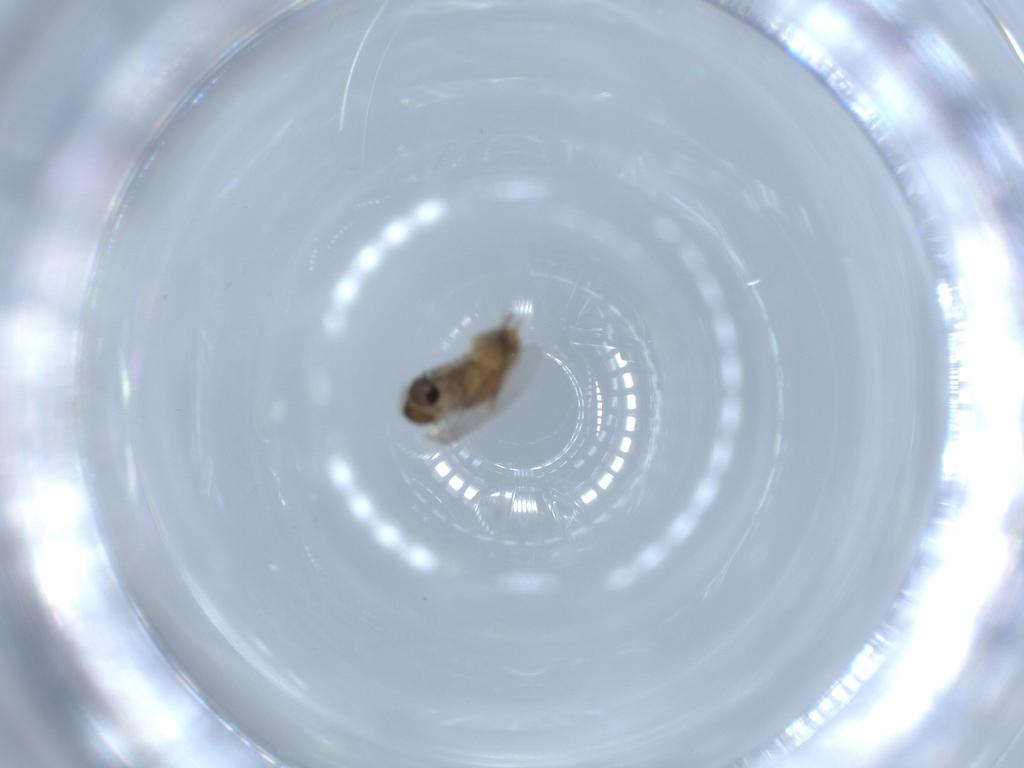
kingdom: Animalia
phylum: Arthropoda
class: Insecta
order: Diptera
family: Psychodidae
